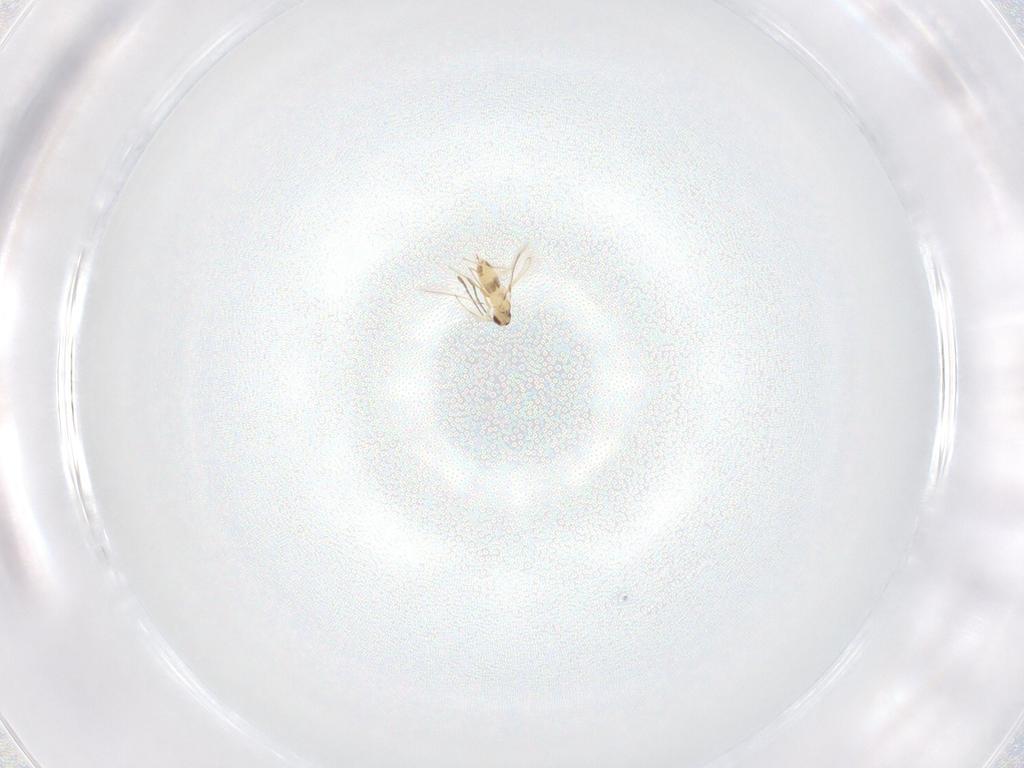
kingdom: Animalia
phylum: Arthropoda
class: Insecta
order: Hymenoptera
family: Mymaridae
